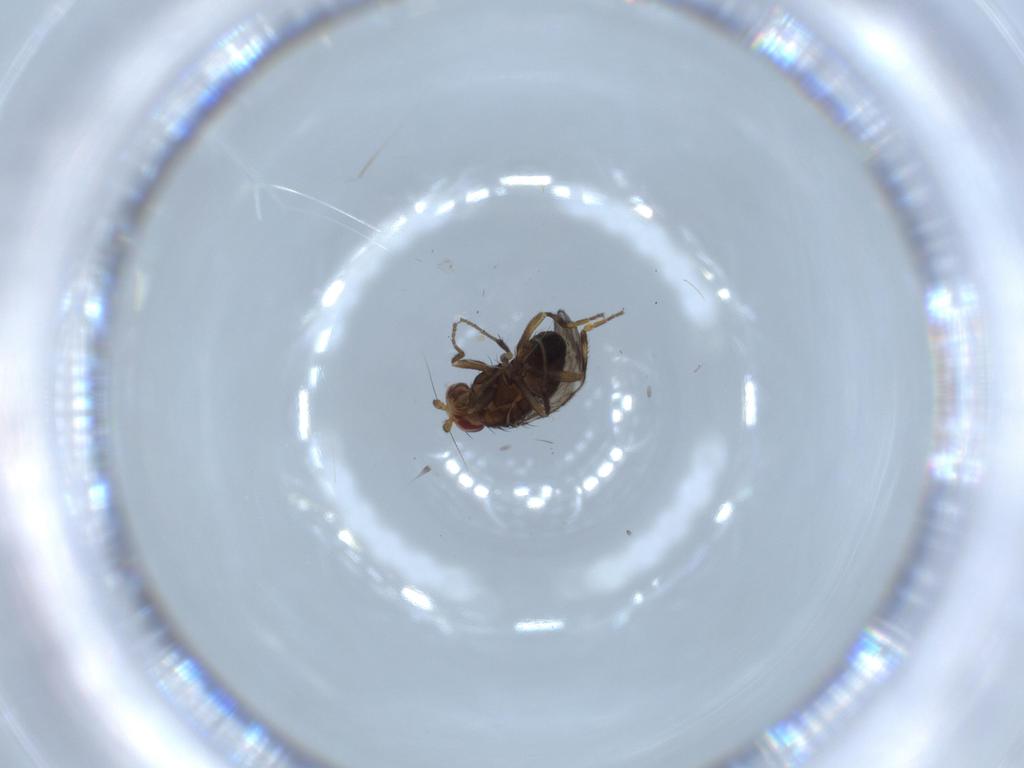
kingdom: Animalia
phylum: Arthropoda
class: Insecta
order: Diptera
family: Sphaeroceridae
